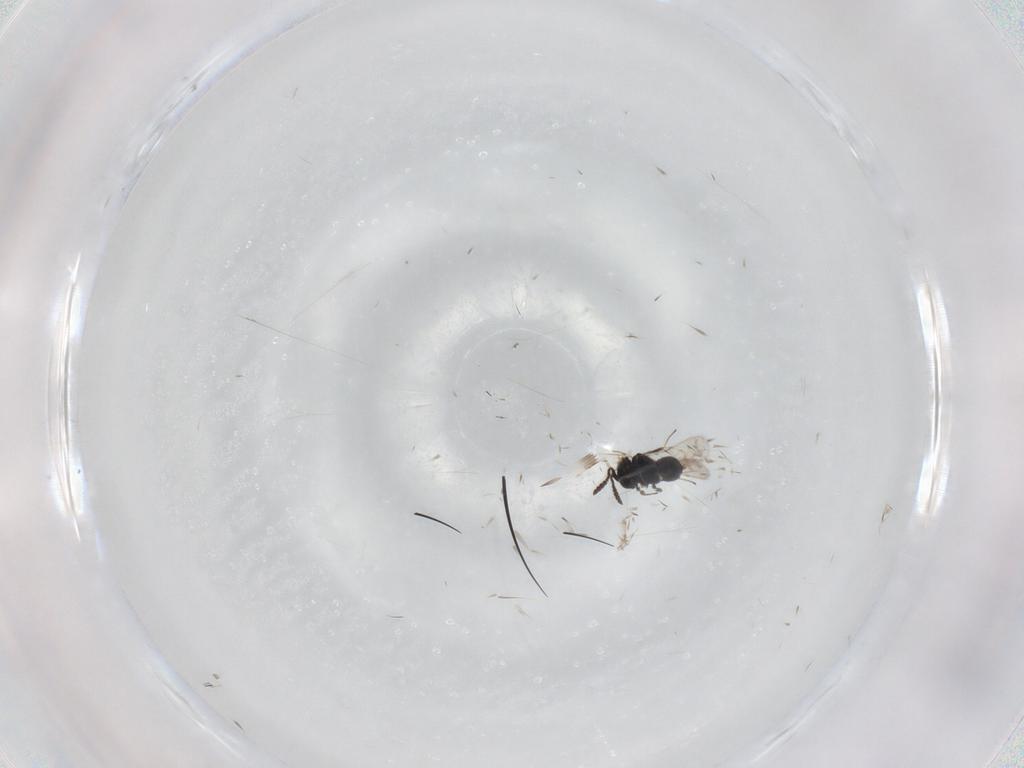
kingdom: Animalia
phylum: Arthropoda
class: Insecta
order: Hymenoptera
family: Scelionidae
